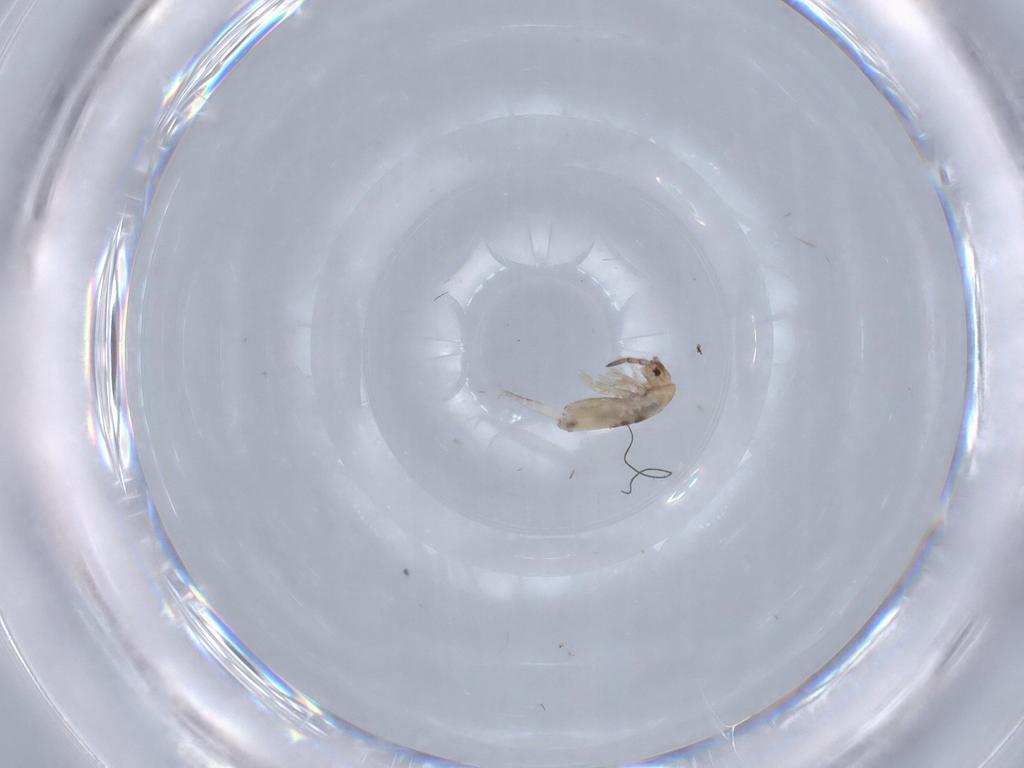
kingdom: Animalia
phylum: Arthropoda
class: Collembola
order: Entomobryomorpha
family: Entomobryidae
